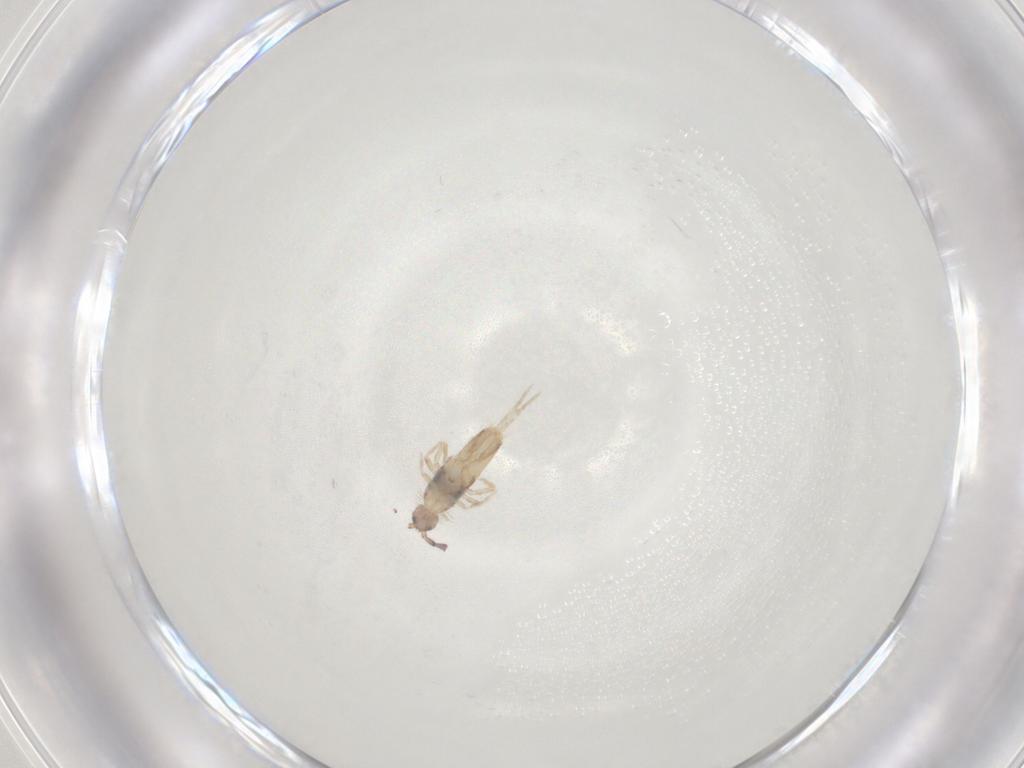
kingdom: Animalia
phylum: Arthropoda
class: Collembola
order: Entomobryomorpha
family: Entomobryidae
